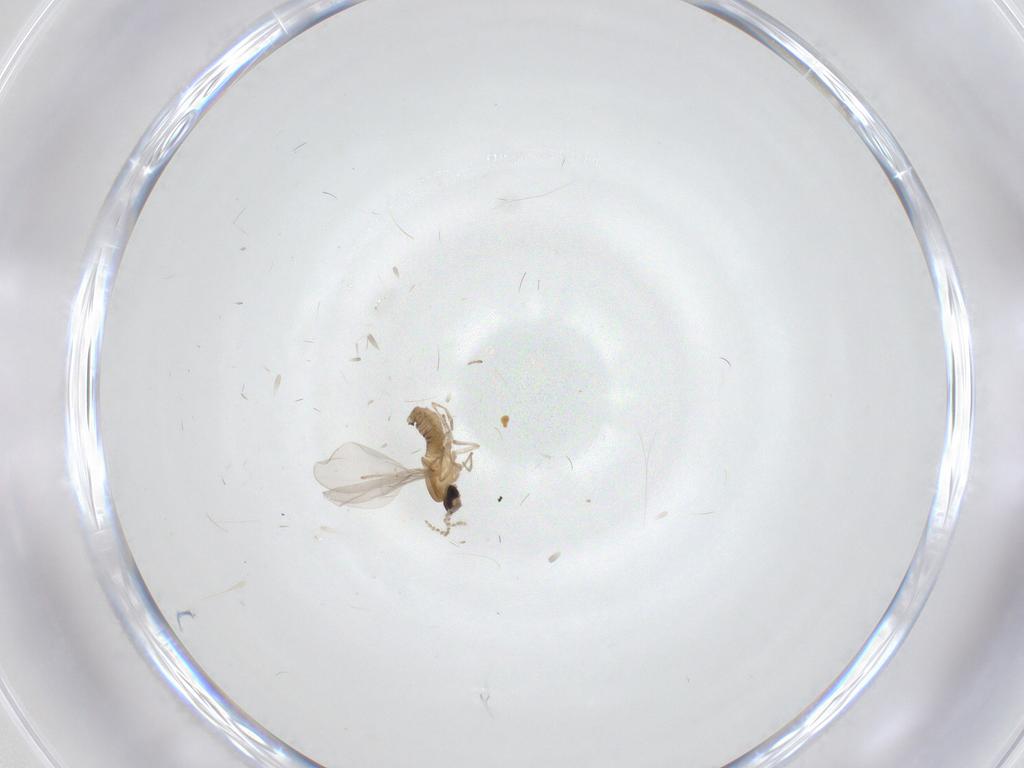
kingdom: Animalia
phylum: Arthropoda
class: Insecta
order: Diptera
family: Cecidomyiidae
